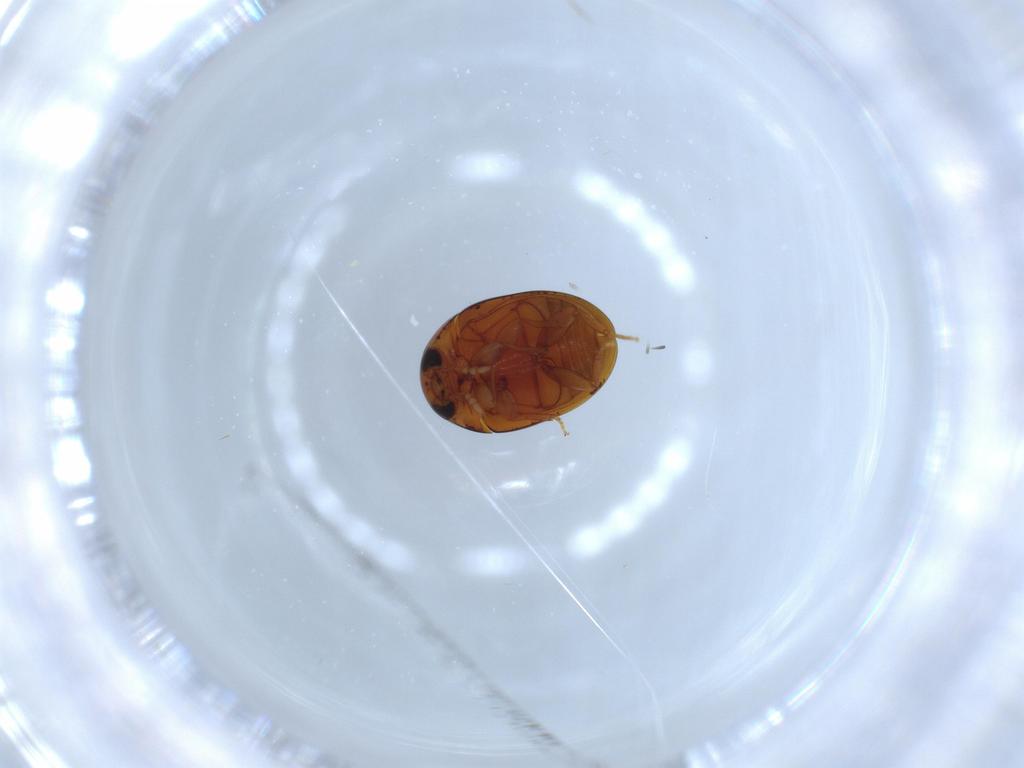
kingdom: Animalia
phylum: Arthropoda
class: Insecta
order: Coleoptera
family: Phalacridae
